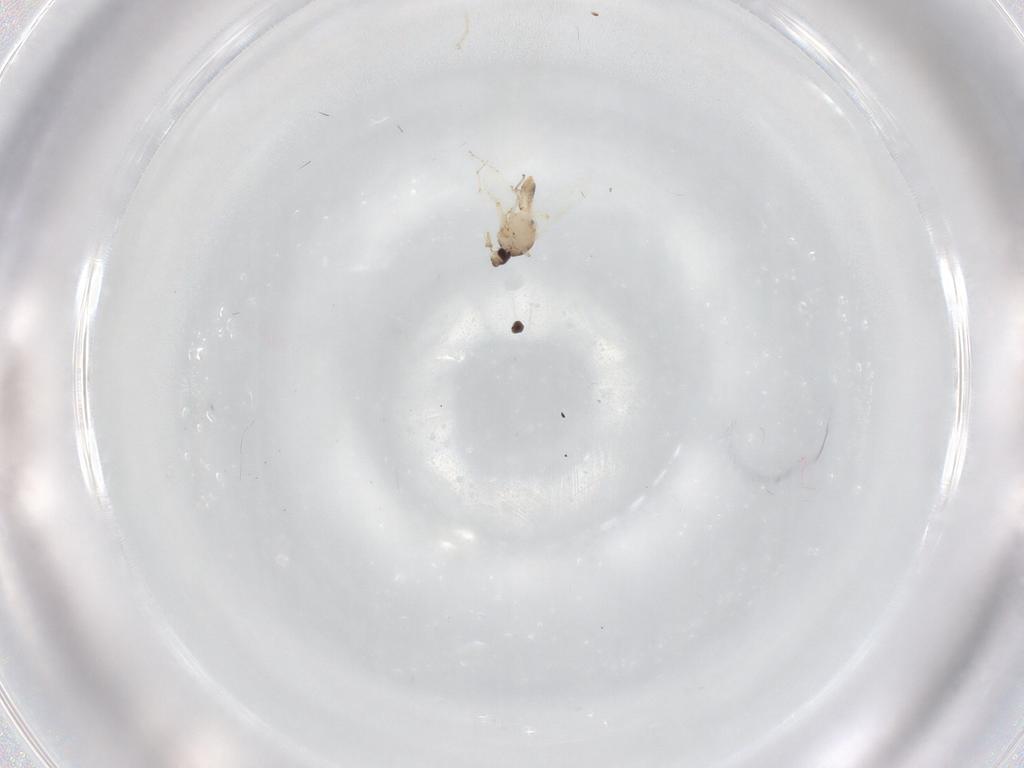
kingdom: Animalia
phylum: Arthropoda
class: Insecta
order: Diptera
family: Ceratopogonidae
